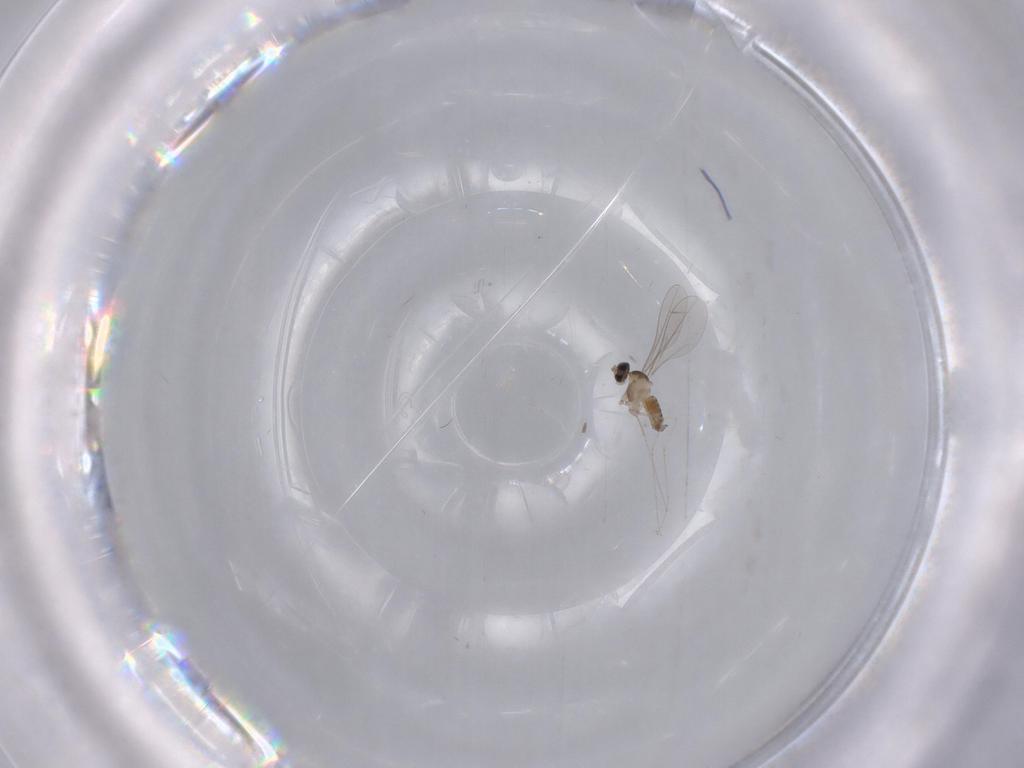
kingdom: Animalia
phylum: Arthropoda
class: Insecta
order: Diptera
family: Cecidomyiidae
